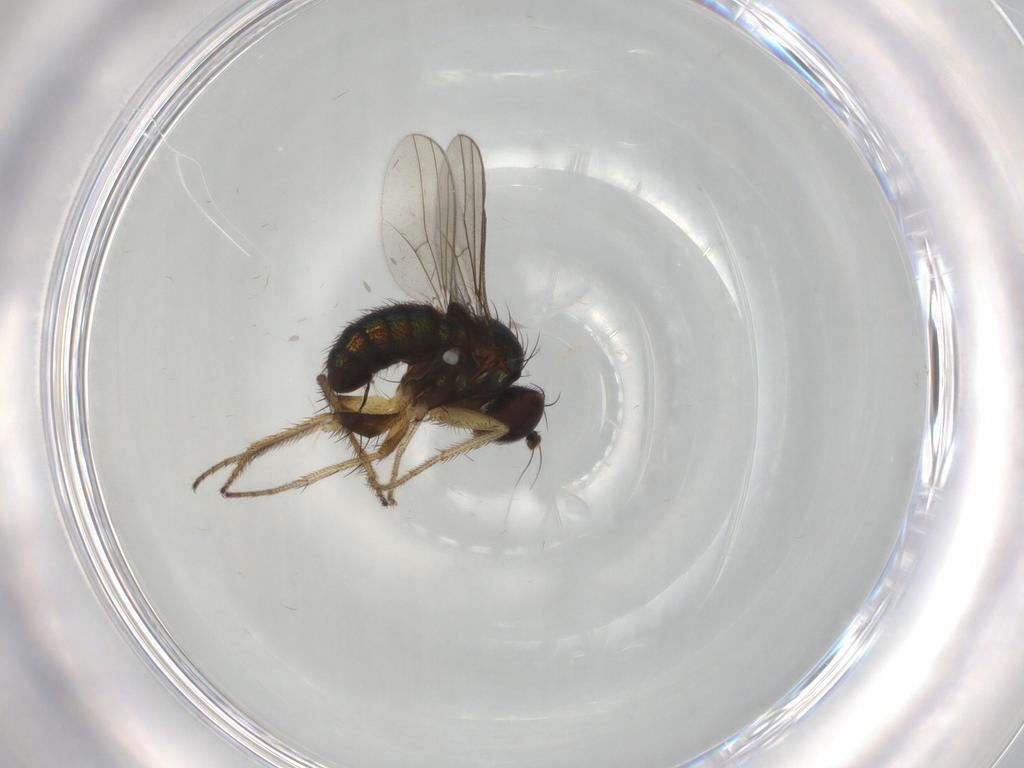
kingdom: Animalia
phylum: Arthropoda
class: Insecta
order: Diptera
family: Dolichopodidae
